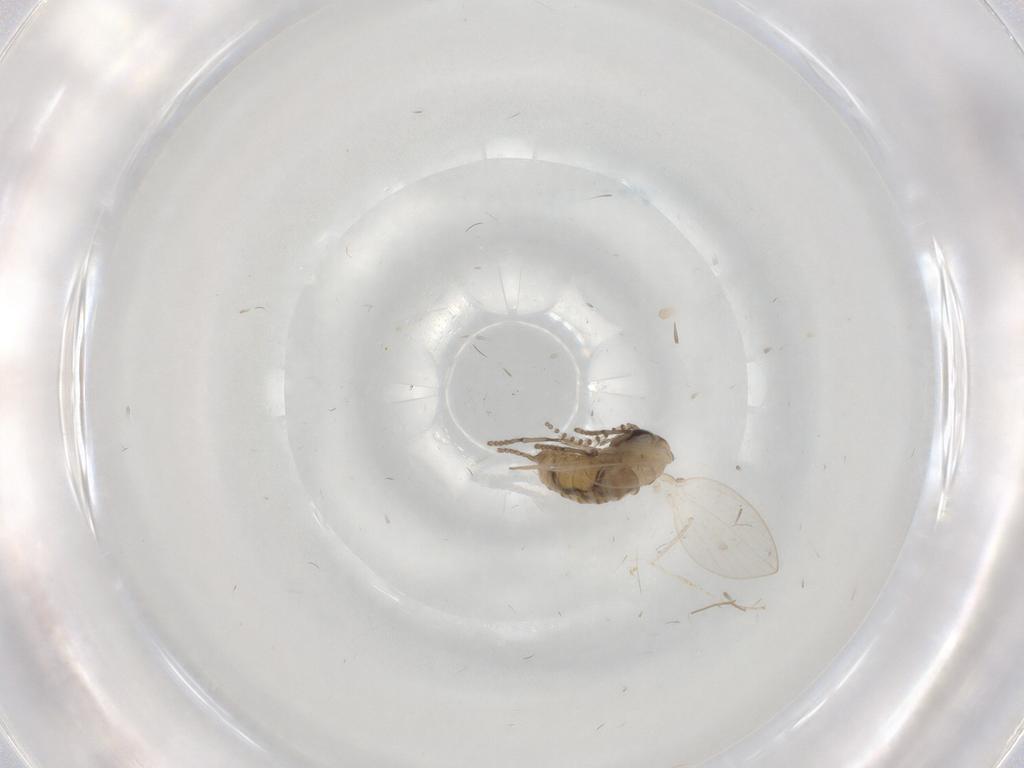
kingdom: Animalia
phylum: Arthropoda
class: Insecta
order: Diptera
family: Psychodidae
